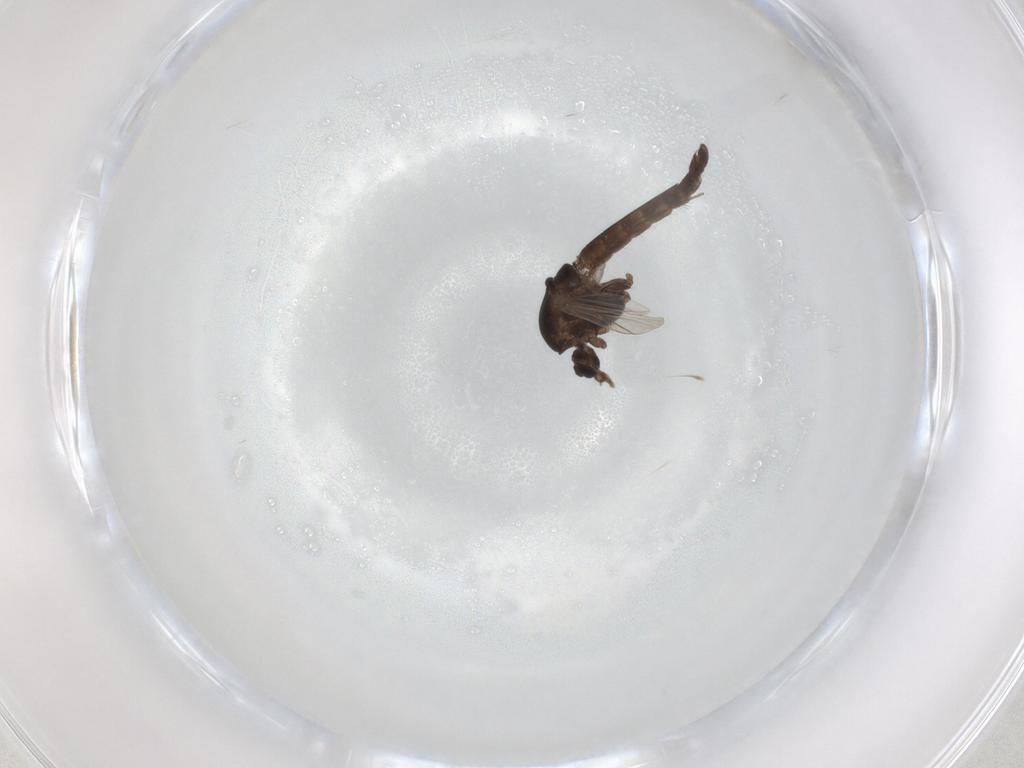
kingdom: Animalia
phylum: Arthropoda
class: Insecta
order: Diptera
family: Chironomidae
